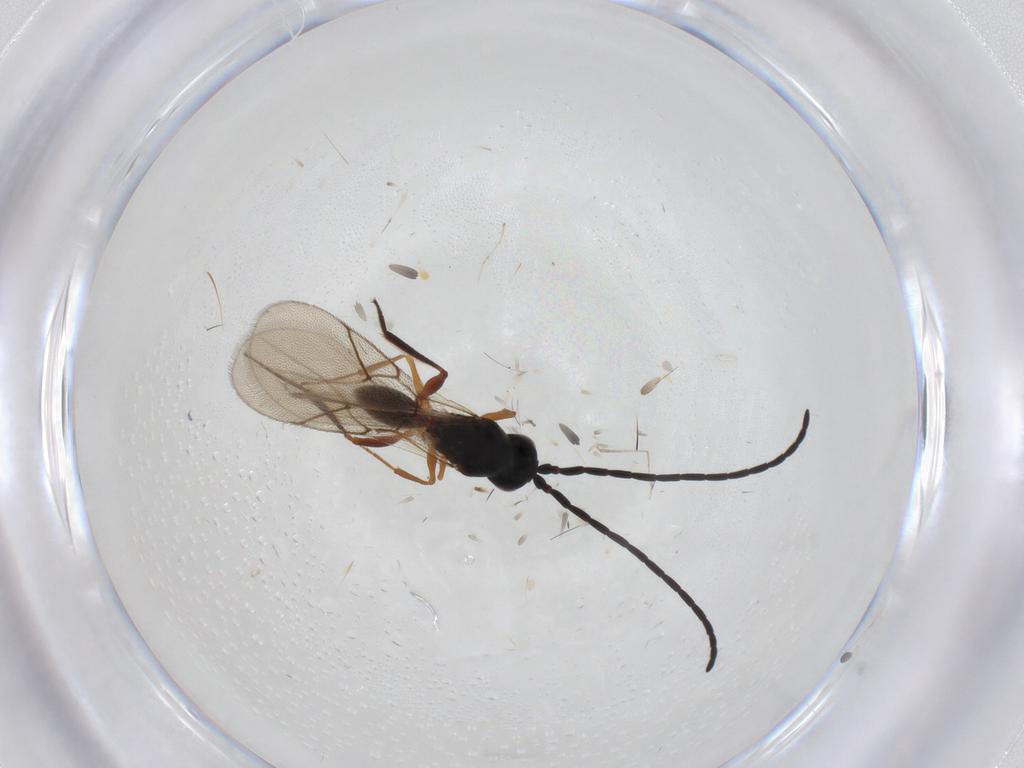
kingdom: Animalia
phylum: Arthropoda
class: Insecta
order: Hymenoptera
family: Figitidae
